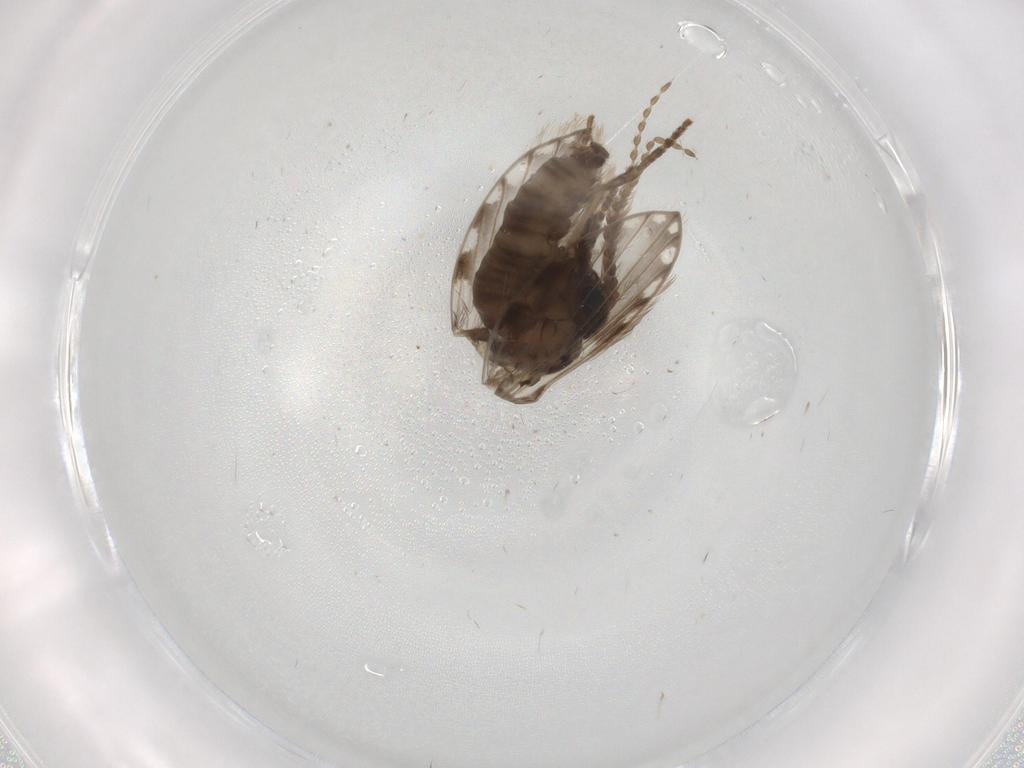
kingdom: Animalia
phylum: Arthropoda
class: Insecta
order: Diptera
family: Psychodidae
